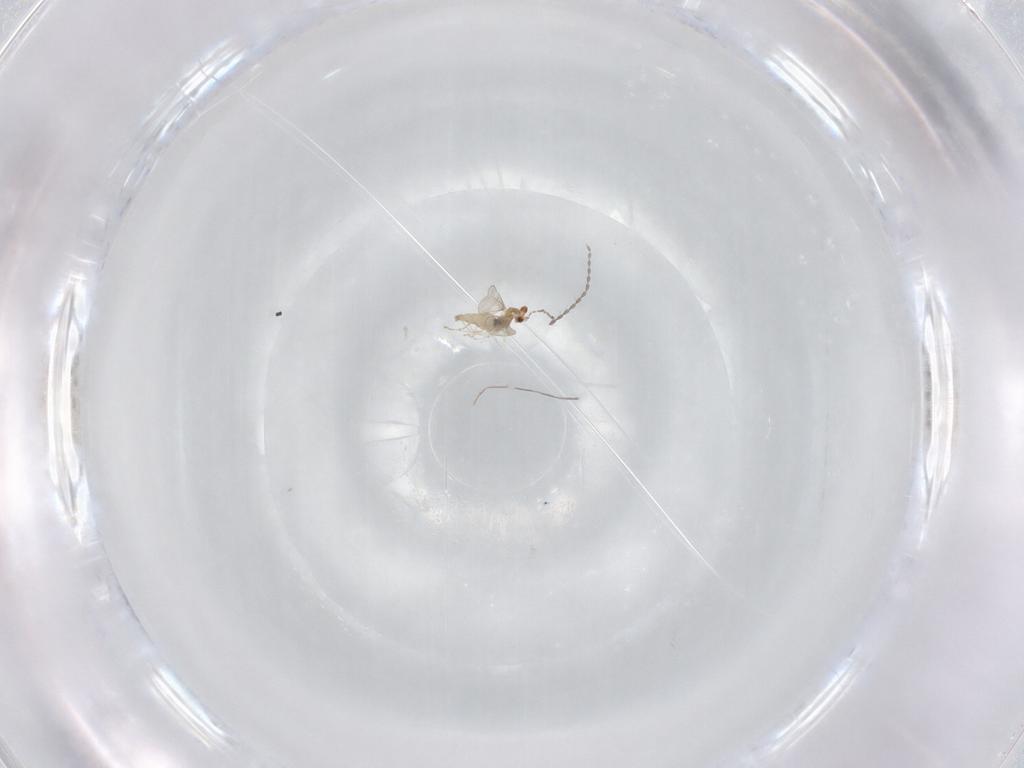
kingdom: Animalia
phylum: Arthropoda
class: Insecta
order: Diptera
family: Cecidomyiidae
